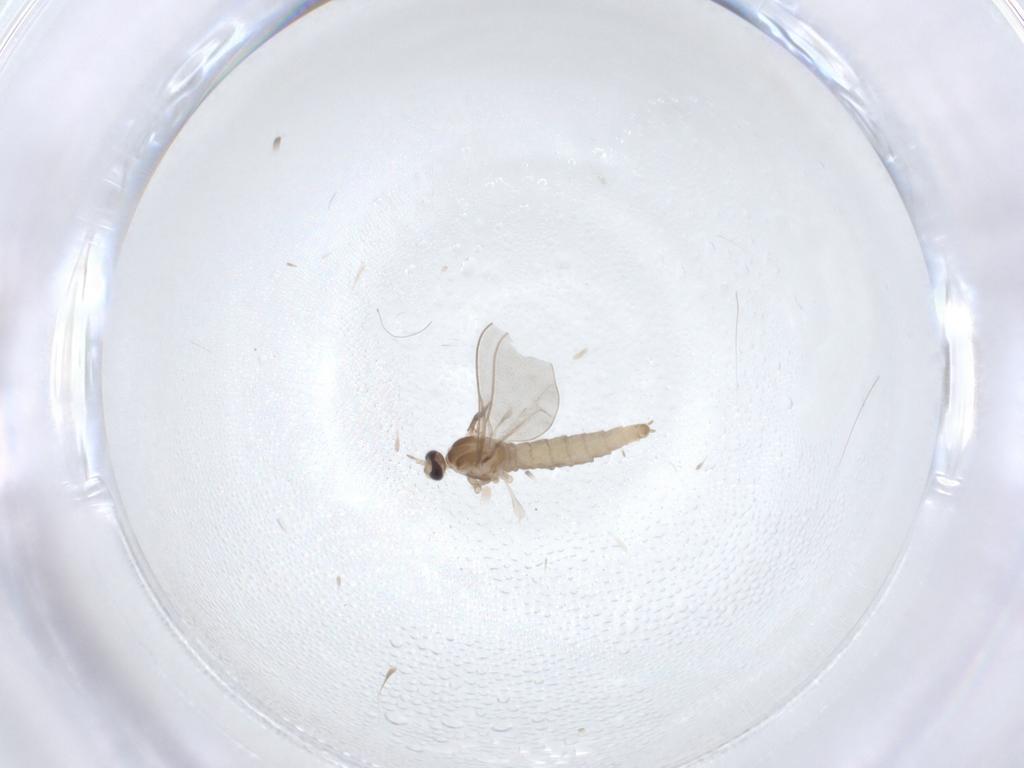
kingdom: Animalia
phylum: Arthropoda
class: Insecta
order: Diptera
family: Cecidomyiidae
